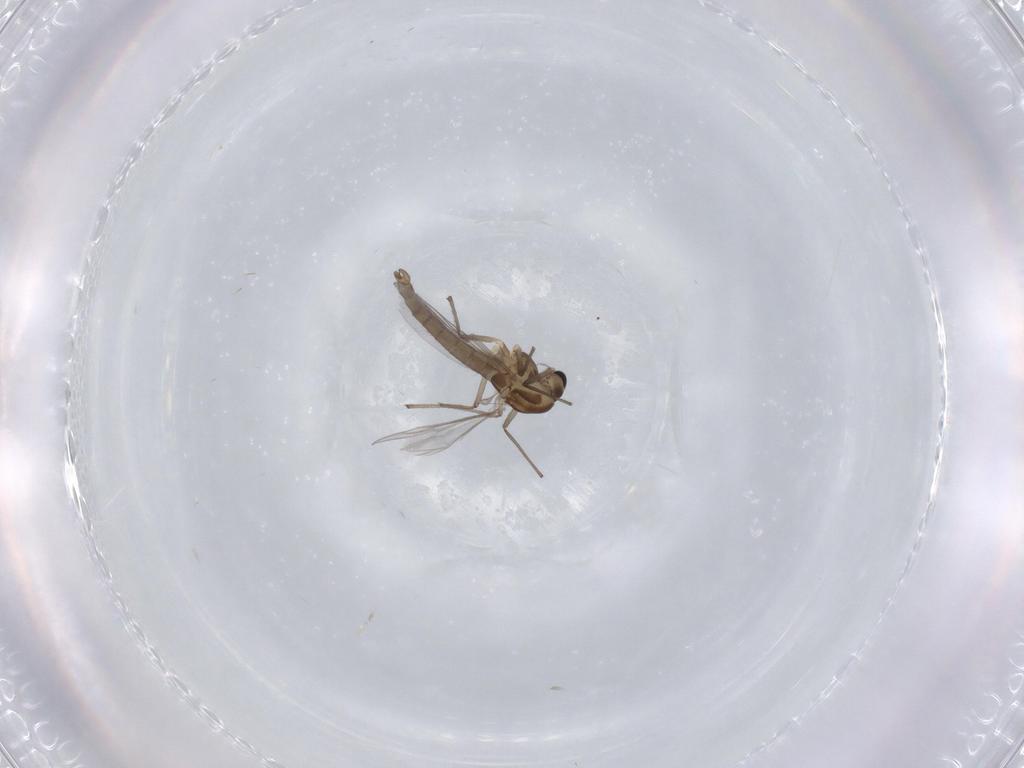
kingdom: Animalia
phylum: Arthropoda
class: Insecta
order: Diptera
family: Chironomidae
